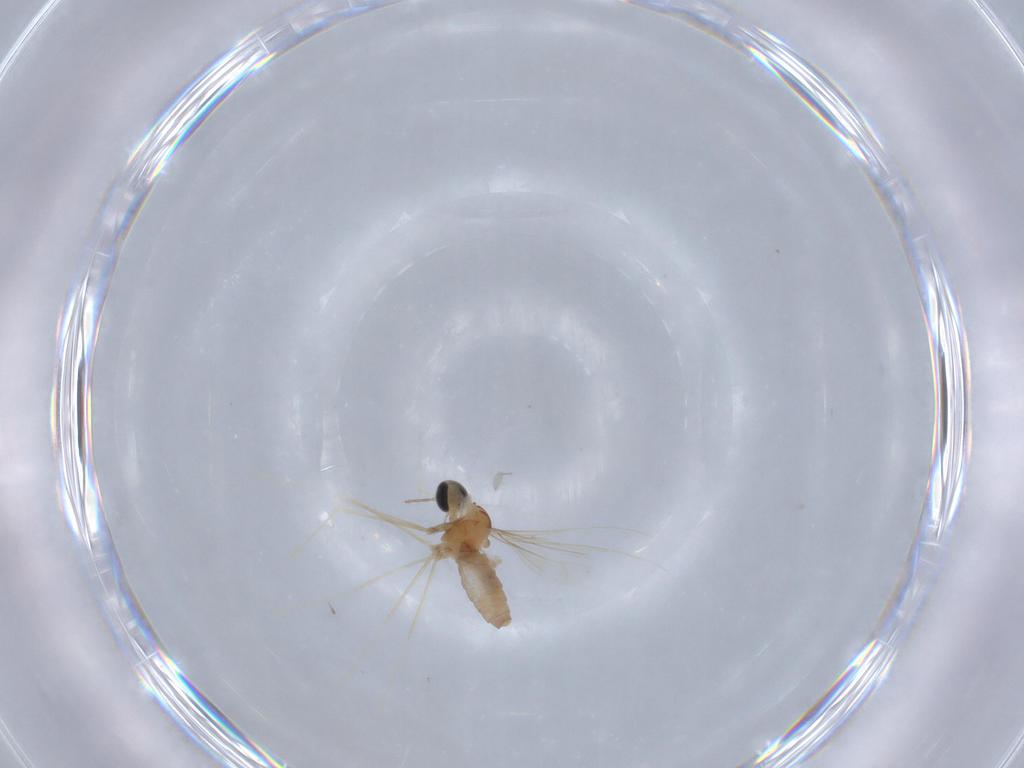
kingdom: Animalia
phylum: Arthropoda
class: Insecta
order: Diptera
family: Cecidomyiidae
